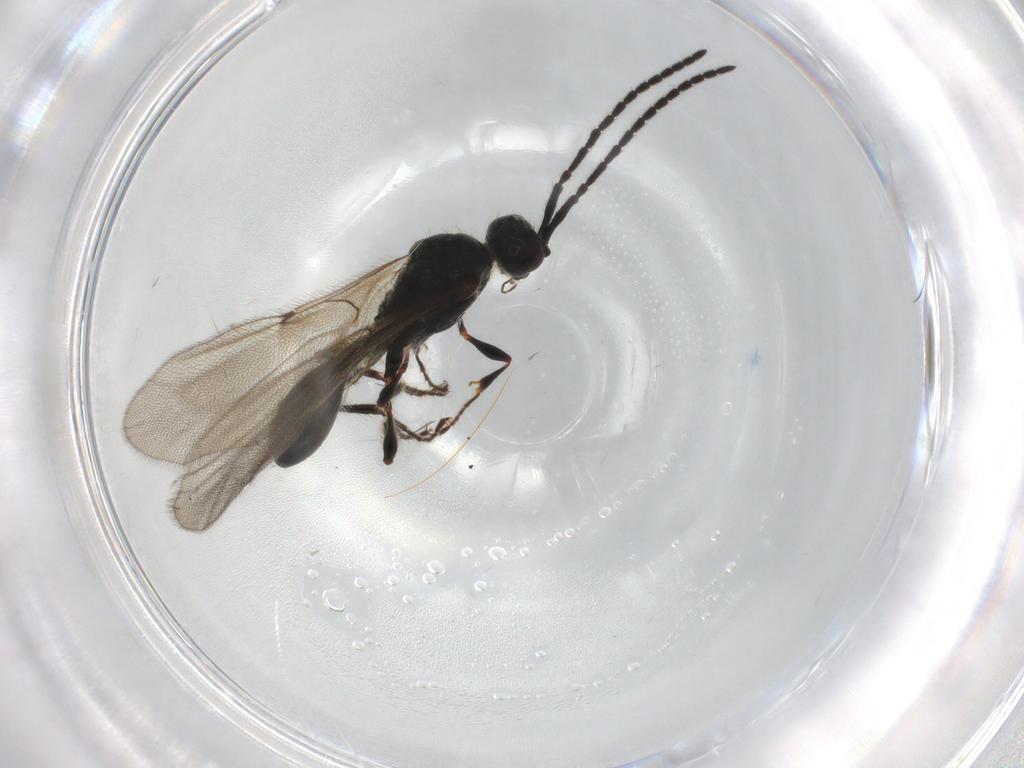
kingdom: Animalia
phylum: Arthropoda
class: Insecta
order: Hymenoptera
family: Diapriidae
